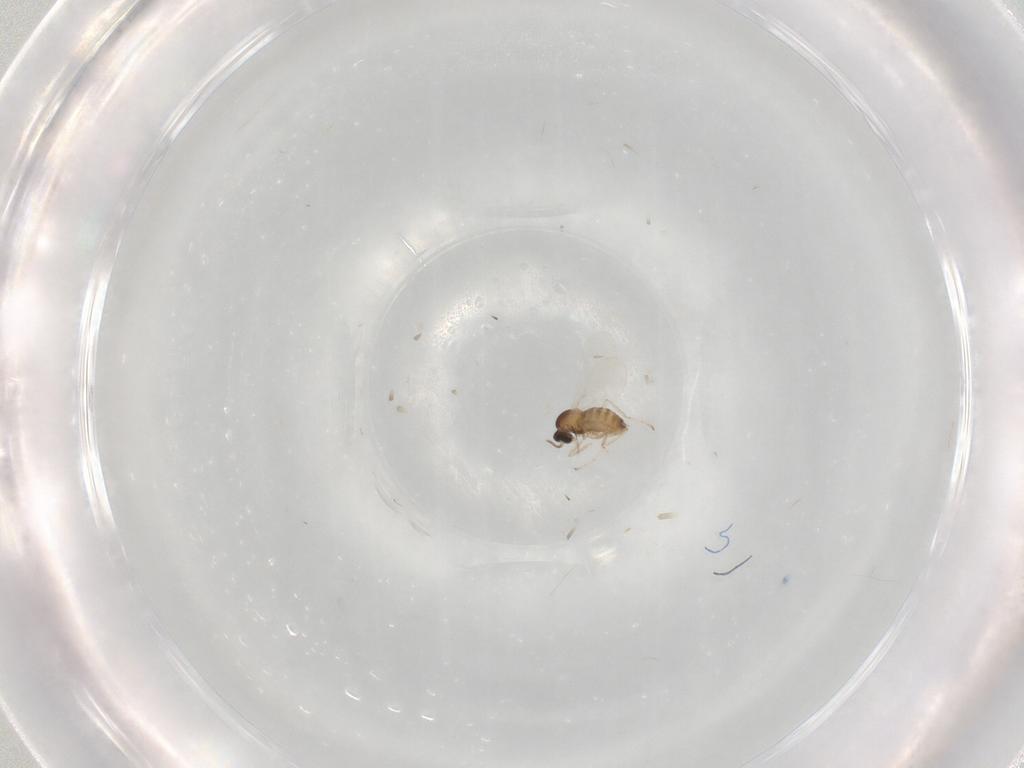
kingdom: Animalia
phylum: Arthropoda
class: Insecta
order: Diptera
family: Cecidomyiidae
